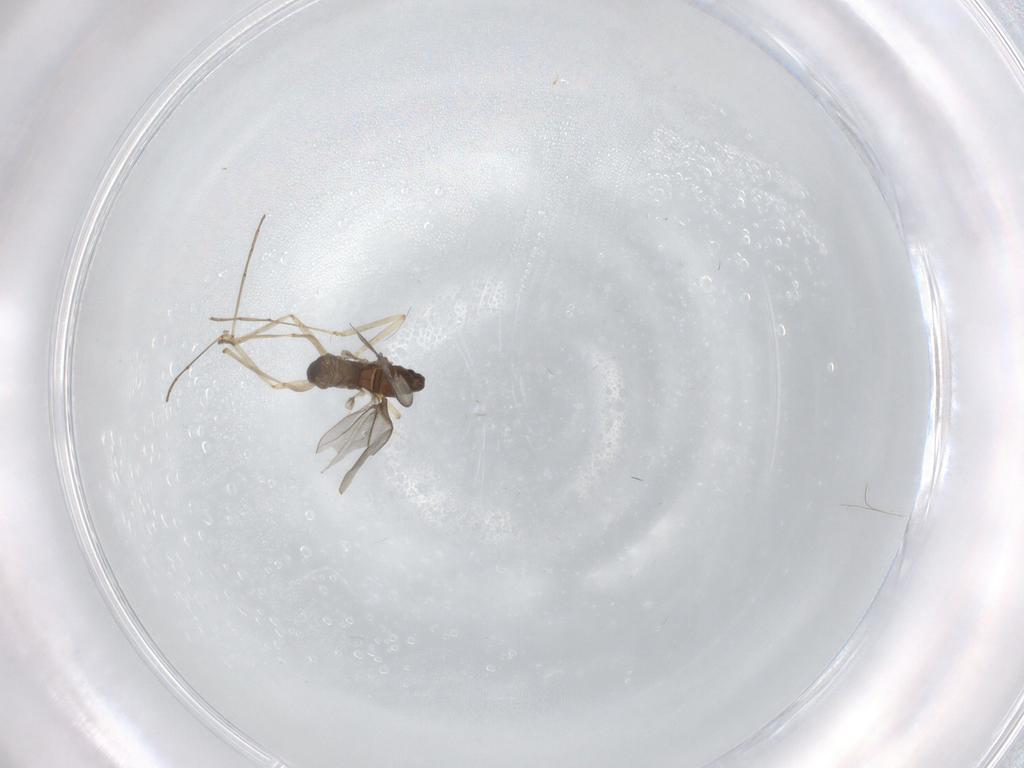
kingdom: Animalia
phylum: Arthropoda
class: Insecta
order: Diptera
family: Cecidomyiidae
